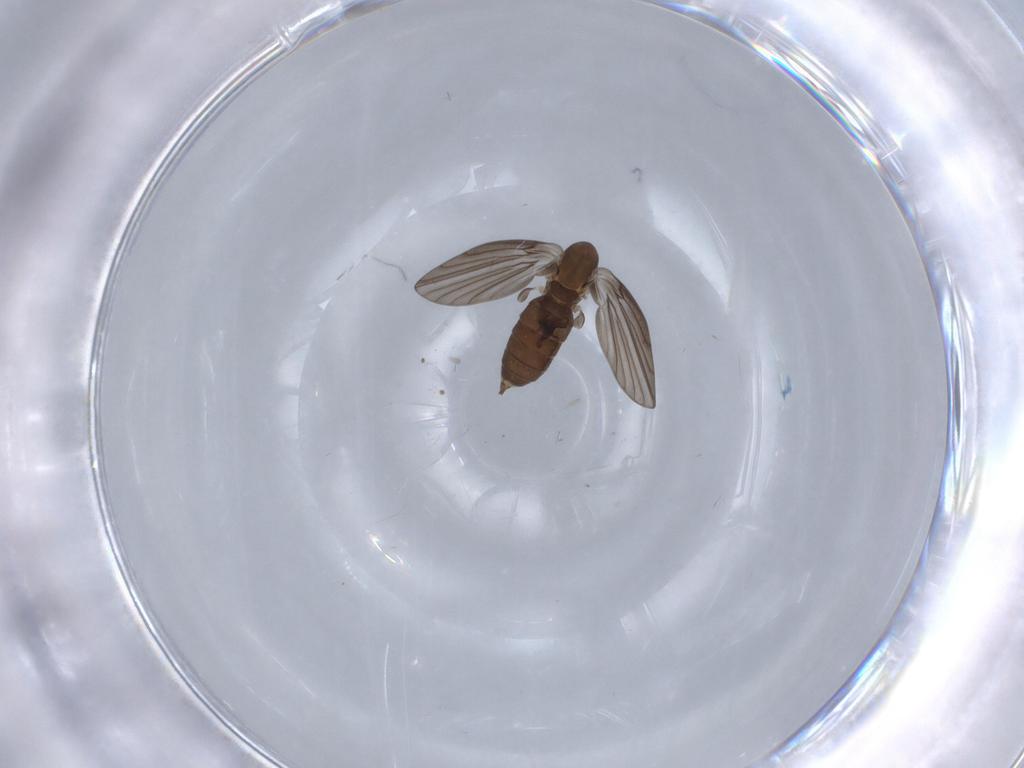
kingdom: Animalia
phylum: Arthropoda
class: Insecta
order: Diptera
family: Psychodidae
